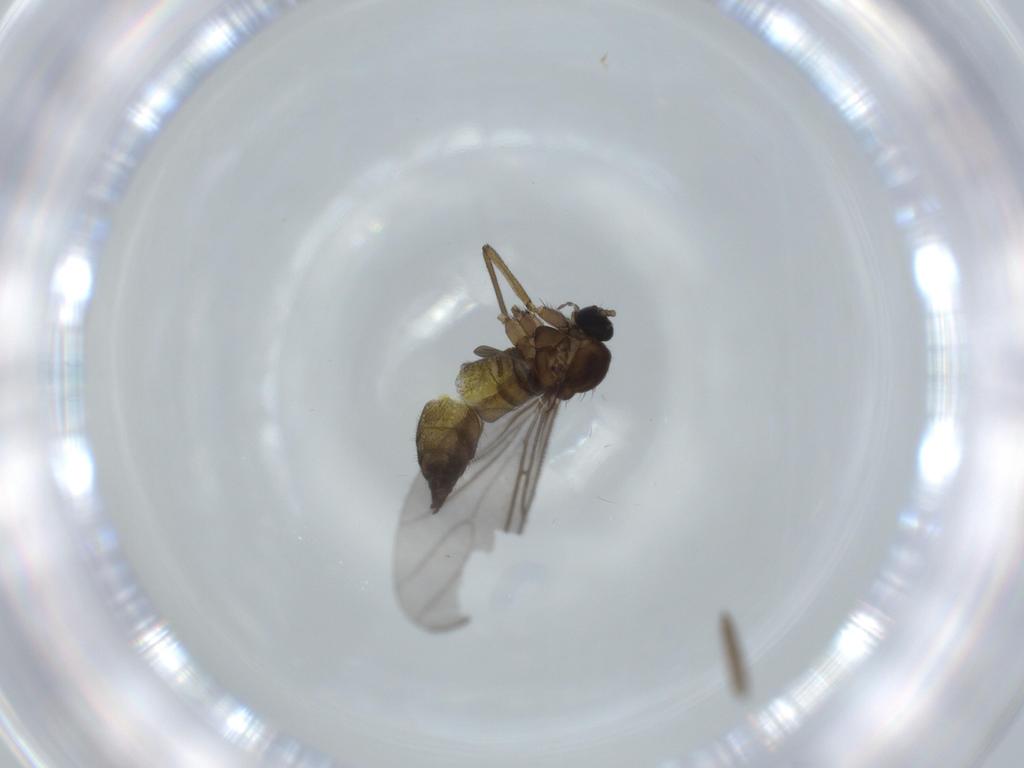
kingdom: Animalia
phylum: Arthropoda
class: Insecta
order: Diptera
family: Sciaridae
